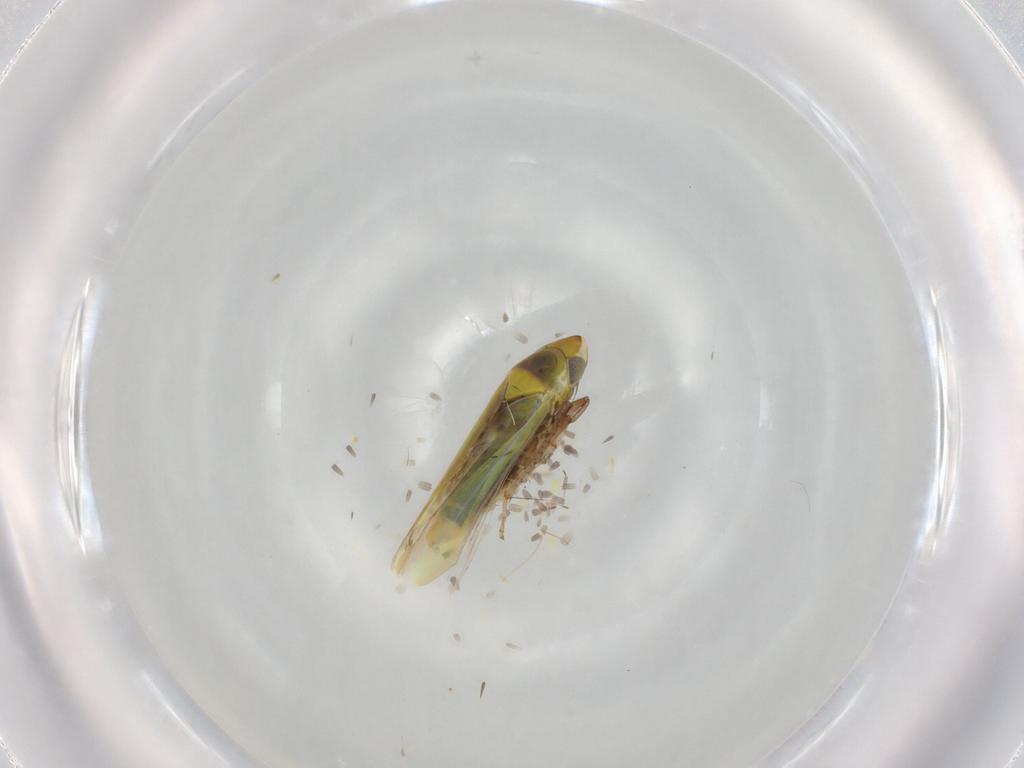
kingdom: Animalia
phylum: Arthropoda
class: Insecta
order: Hemiptera
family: Cicadellidae
